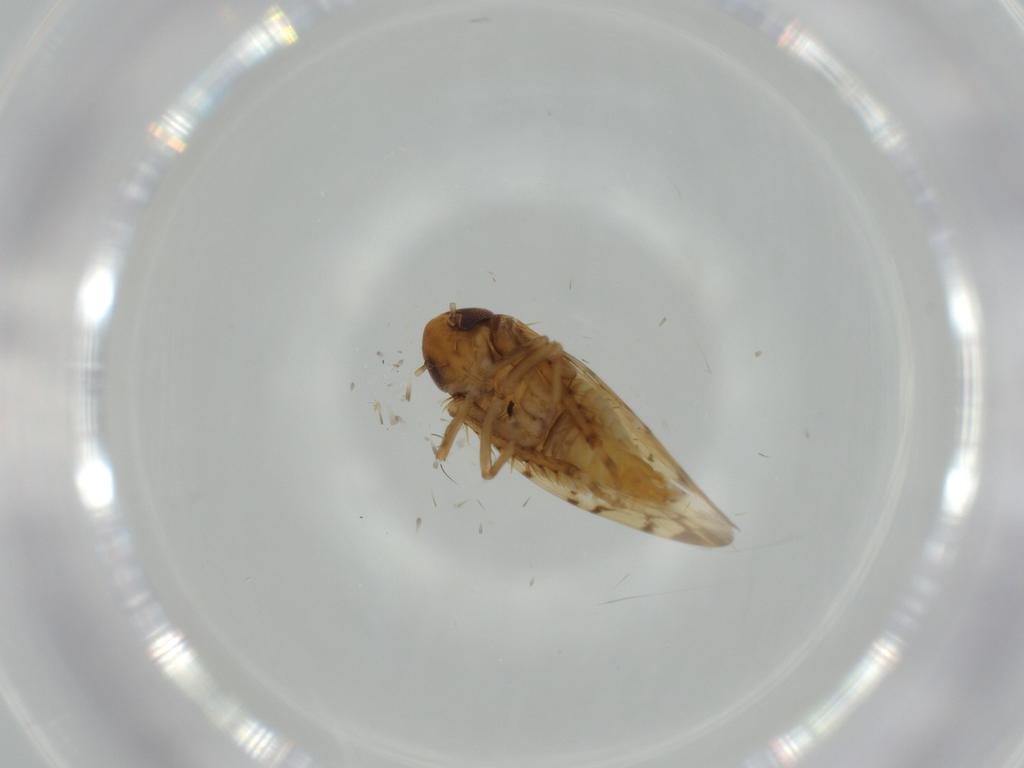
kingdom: Animalia
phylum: Arthropoda
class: Insecta
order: Hemiptera
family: Cicadellidae
